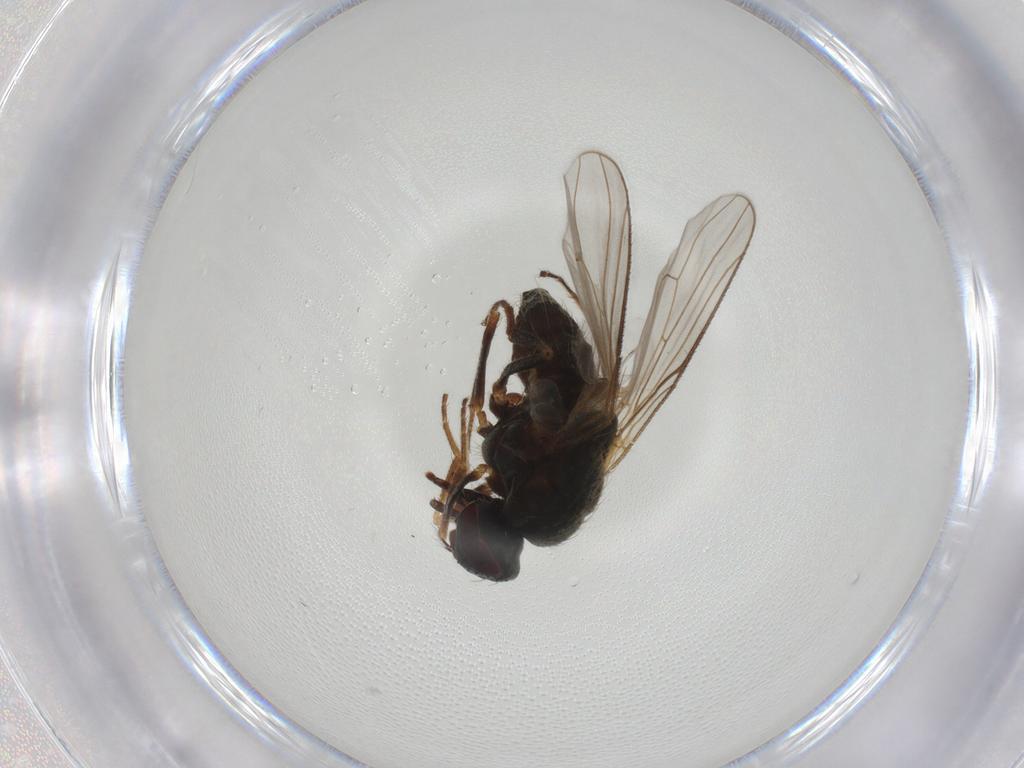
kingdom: Animalia
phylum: Arthropoda
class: Insecta
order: Diptera
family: Muscidae
